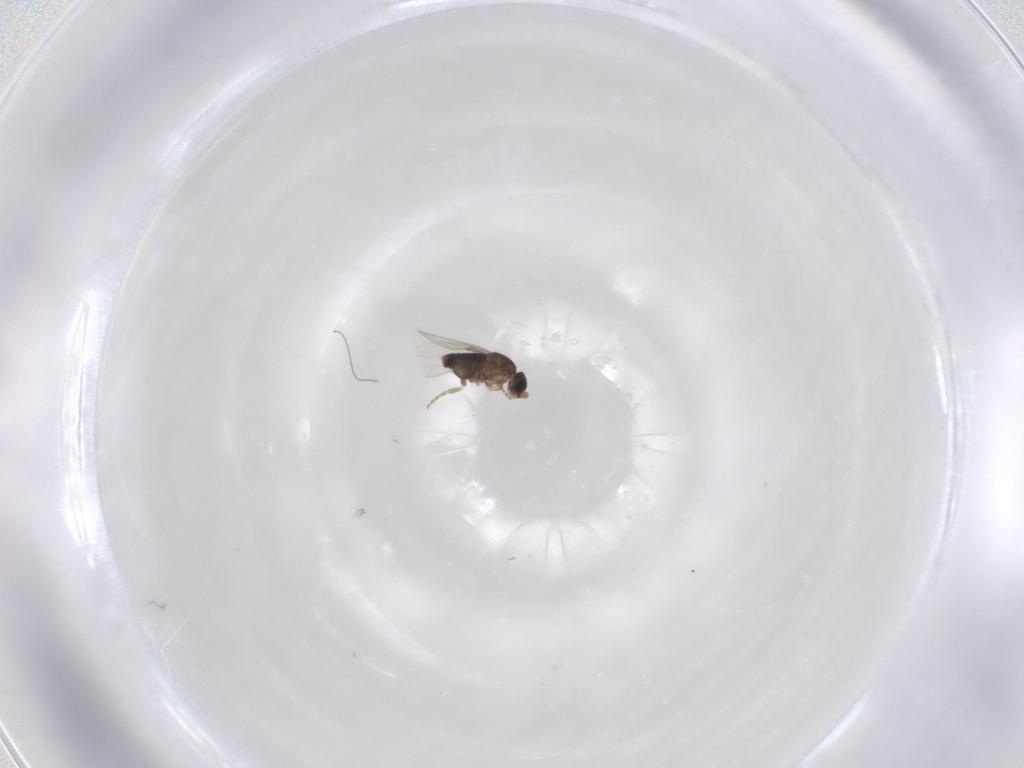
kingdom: Animalia
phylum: Arthropoda
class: Insecta
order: Diptera
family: Phoridae
